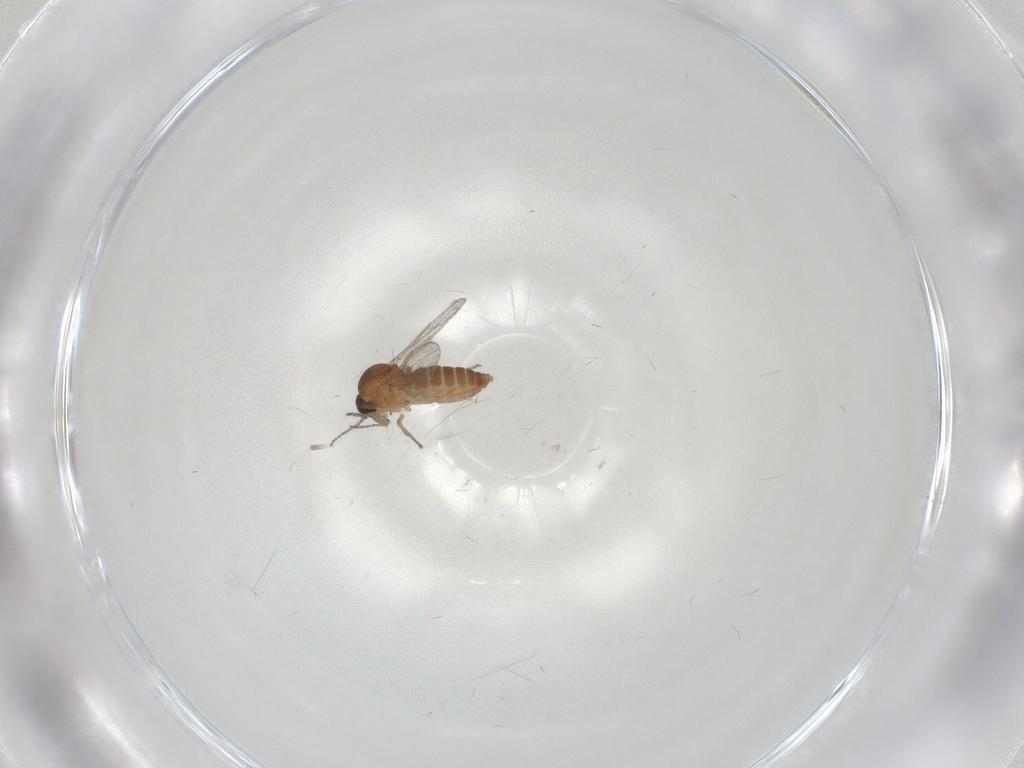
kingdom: Animalia
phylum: Arthropoda
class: Insecta
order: Diptera
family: Ceratopogonidae
